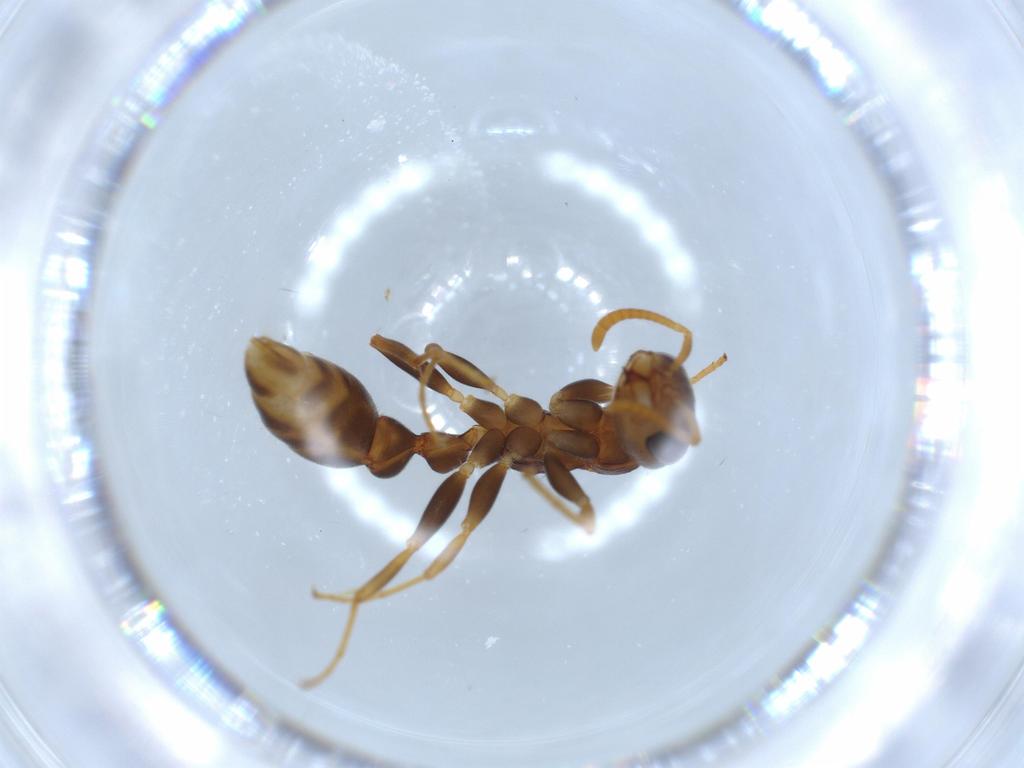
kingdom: Animalia
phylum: Arthropoda
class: Insecta
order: Hymenoptera
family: Formicidae
